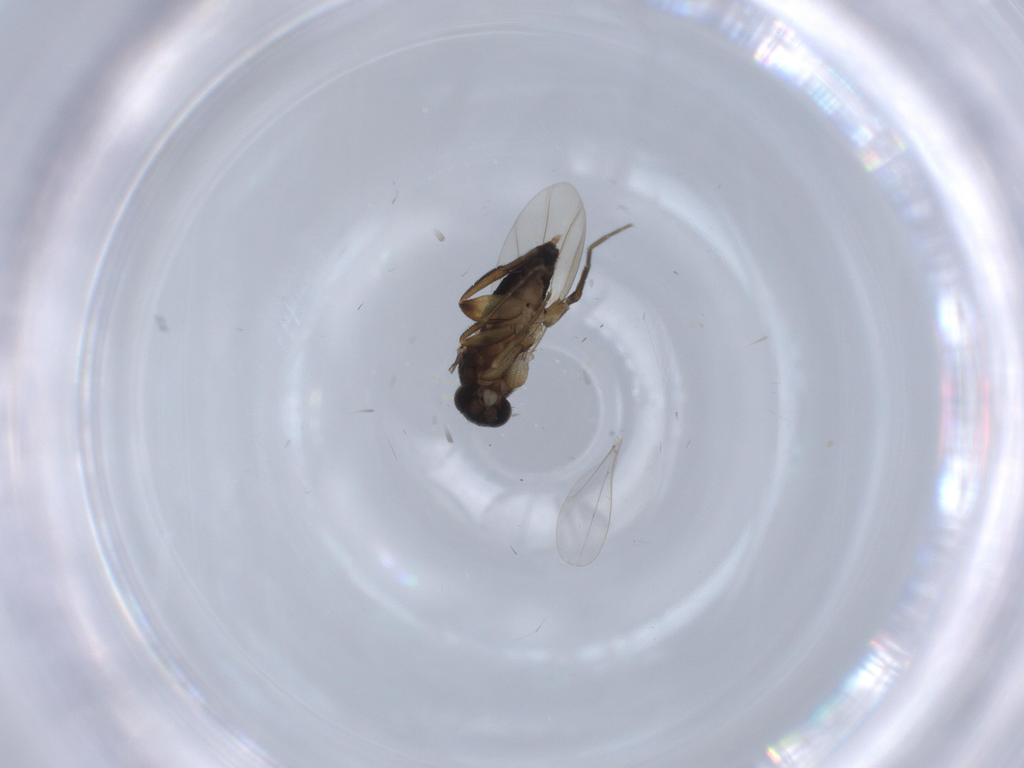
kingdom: Animalia
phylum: Arthropoda
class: Insecta
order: Diptera
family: Sciaridae
